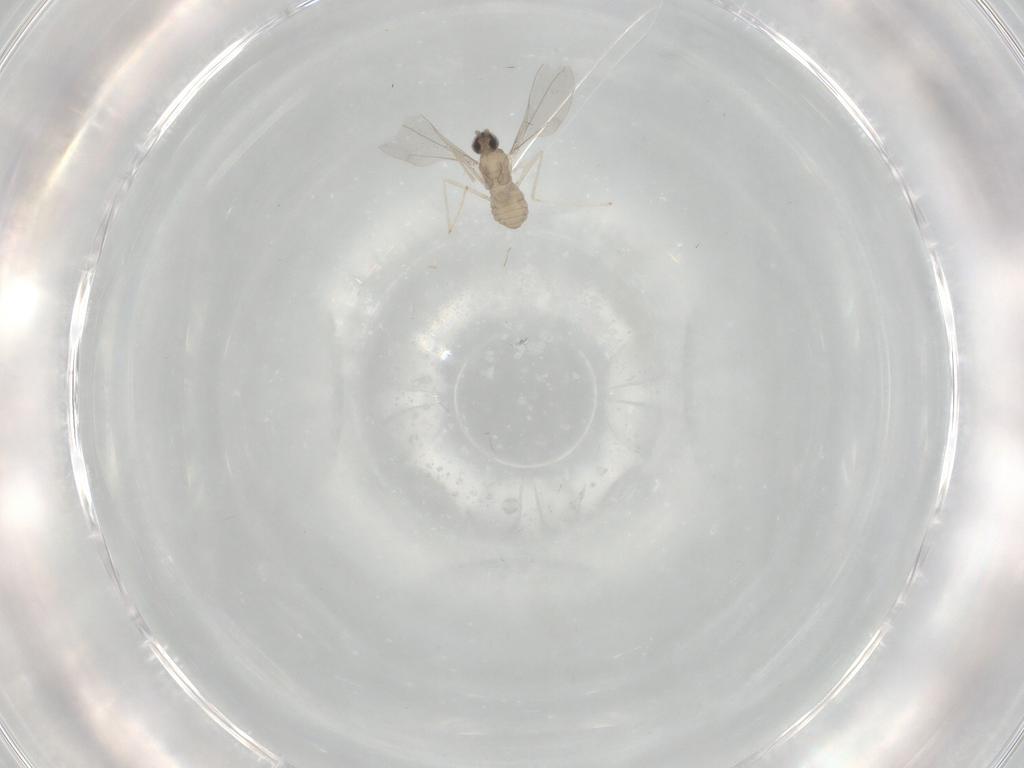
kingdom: Animalia
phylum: Arthropoda
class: Insecta
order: Diptera
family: Cecidomyiidae
